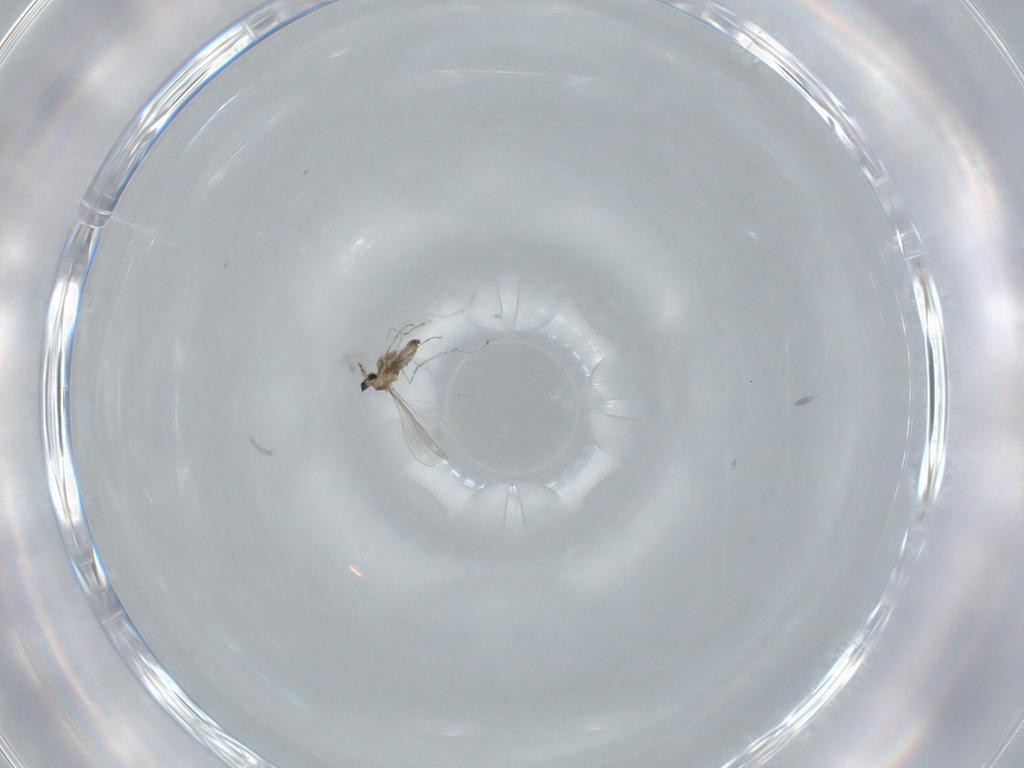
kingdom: Animalia
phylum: Arthropoda
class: Insecta
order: Diptera
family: Cecidomyiidae
